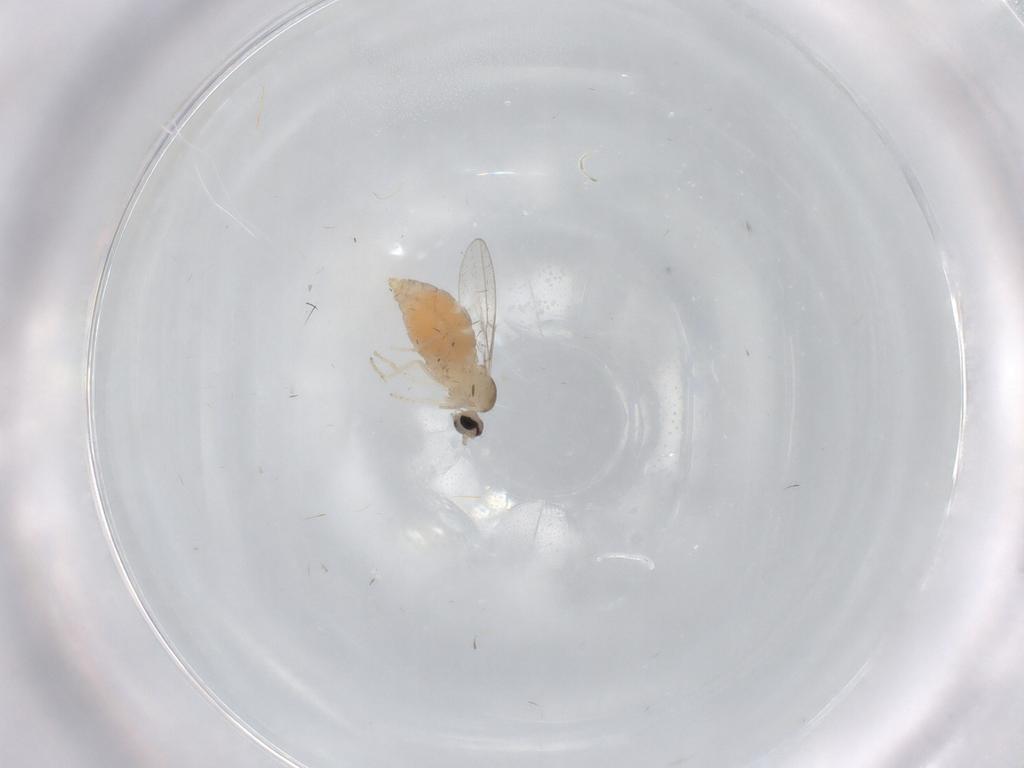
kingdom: Animalia
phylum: Arthropoda
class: Insecta
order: Diptera
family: Cecidomyiidae
